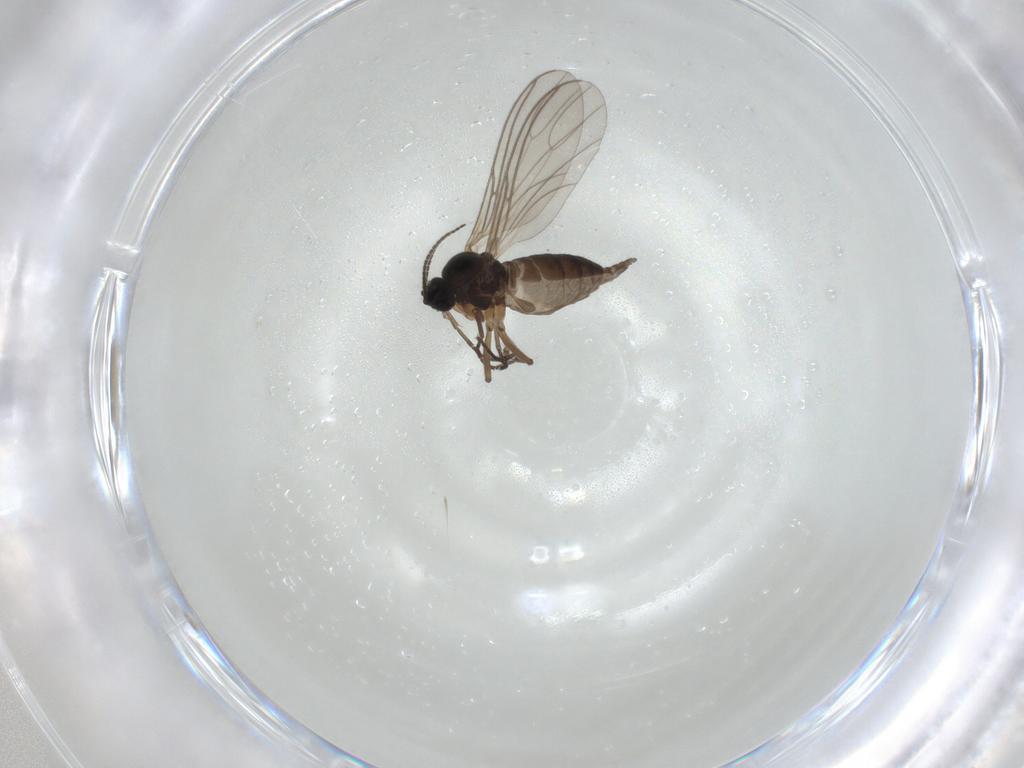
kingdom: Animalia
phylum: Arthropoda
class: Insecta
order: Diptera
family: Sciaridae
